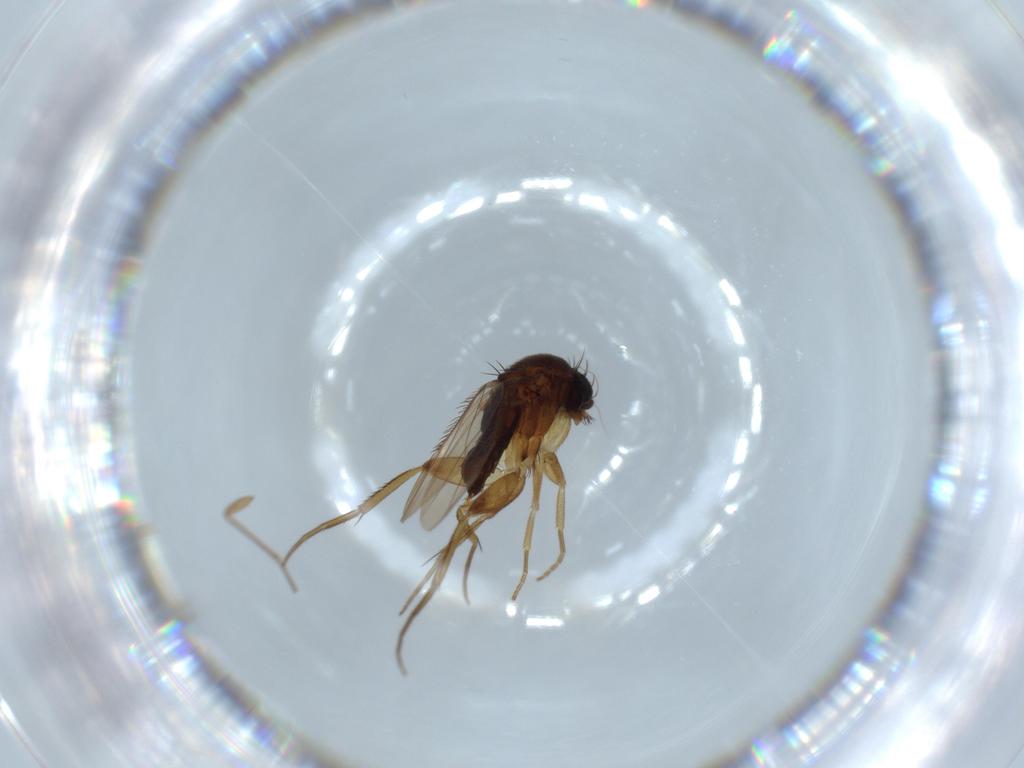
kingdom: Animalia
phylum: Arthropoda
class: Insecta
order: Diptera
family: Phoridae
